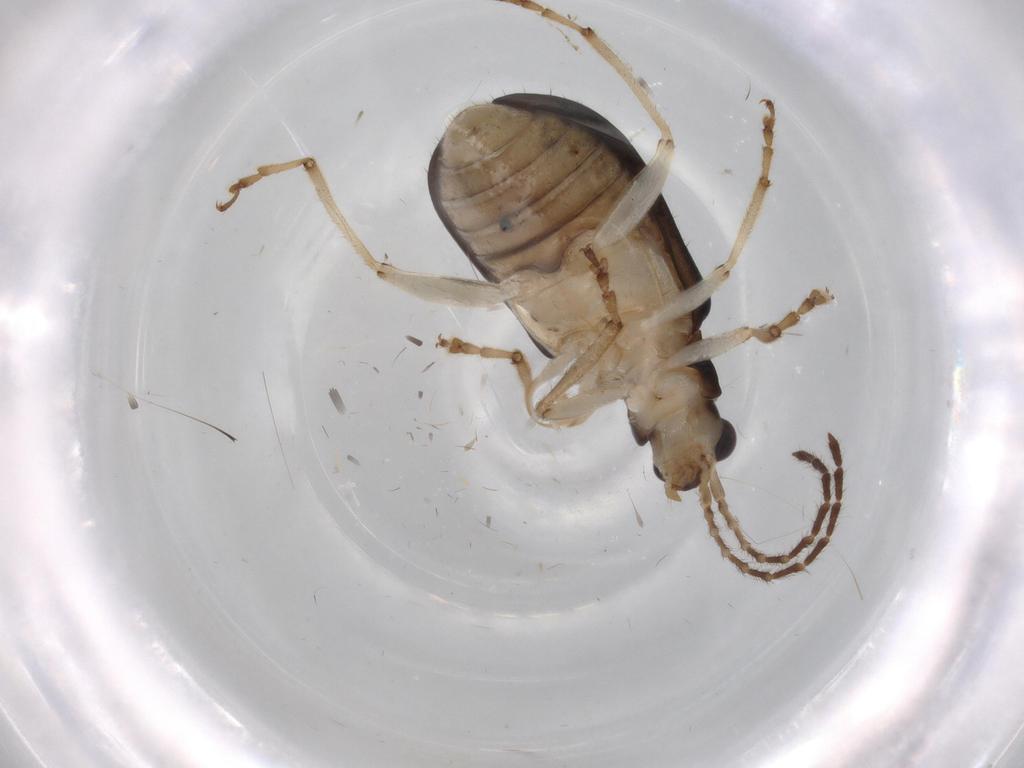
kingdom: Animalia
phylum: Arthropoda
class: Insecta
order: Coleoptera
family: Chrysomelidae
